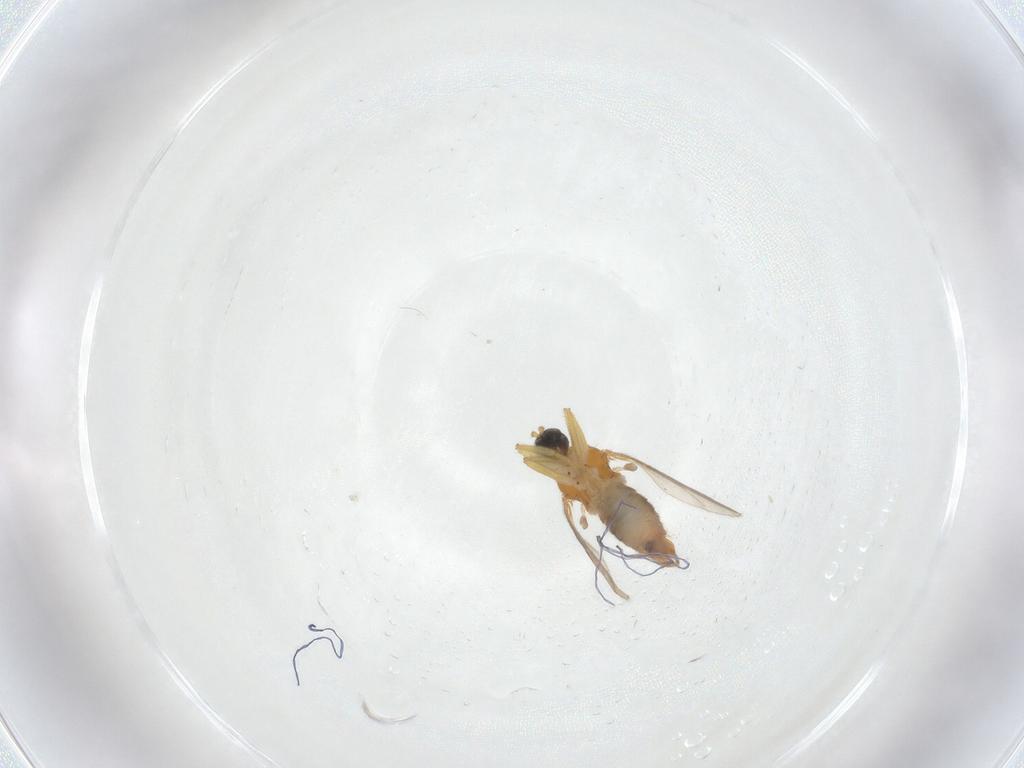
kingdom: Animalia
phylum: Arthropoda
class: Insecta
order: Diptera
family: Hybotidae
